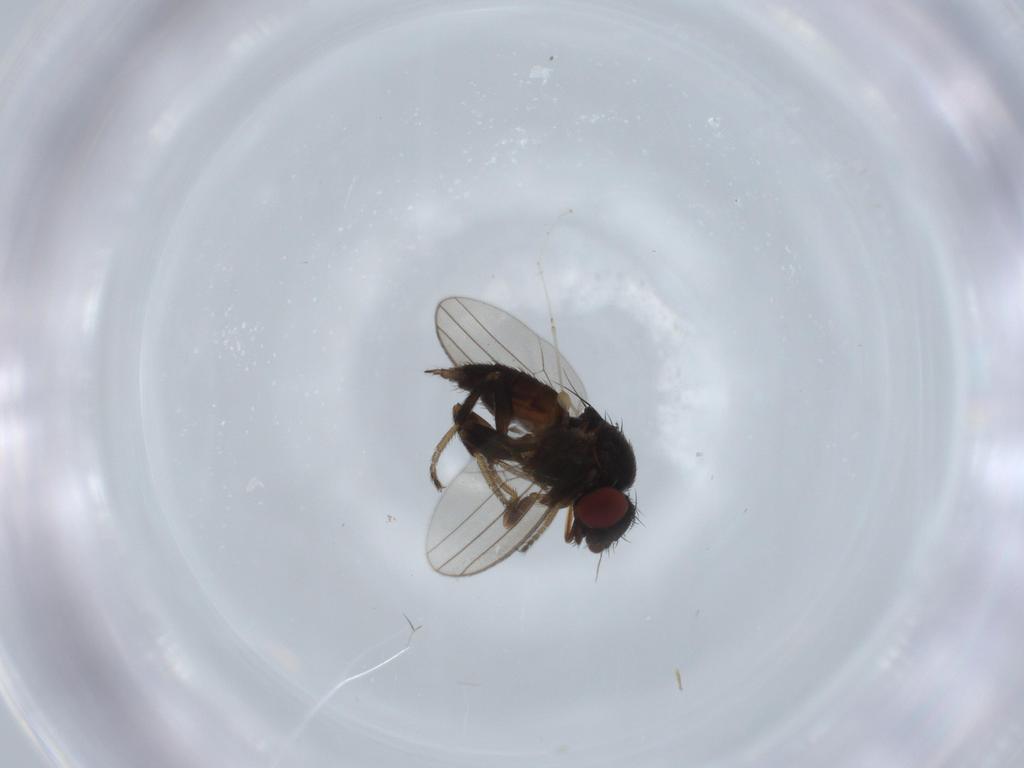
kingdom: Animalia
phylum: Arthropoda
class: Insecta
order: Diptera
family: Milichiidae
